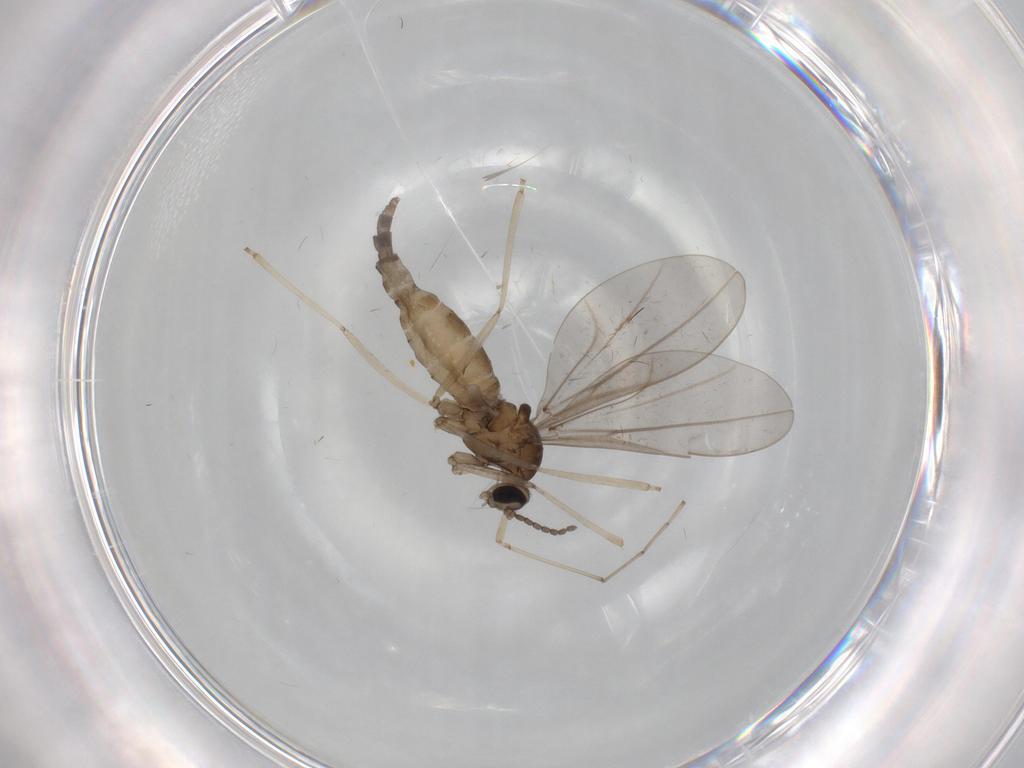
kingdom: Animalia
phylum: Arthropoda
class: Insecta
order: Diptera
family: Cecidomyiidae
